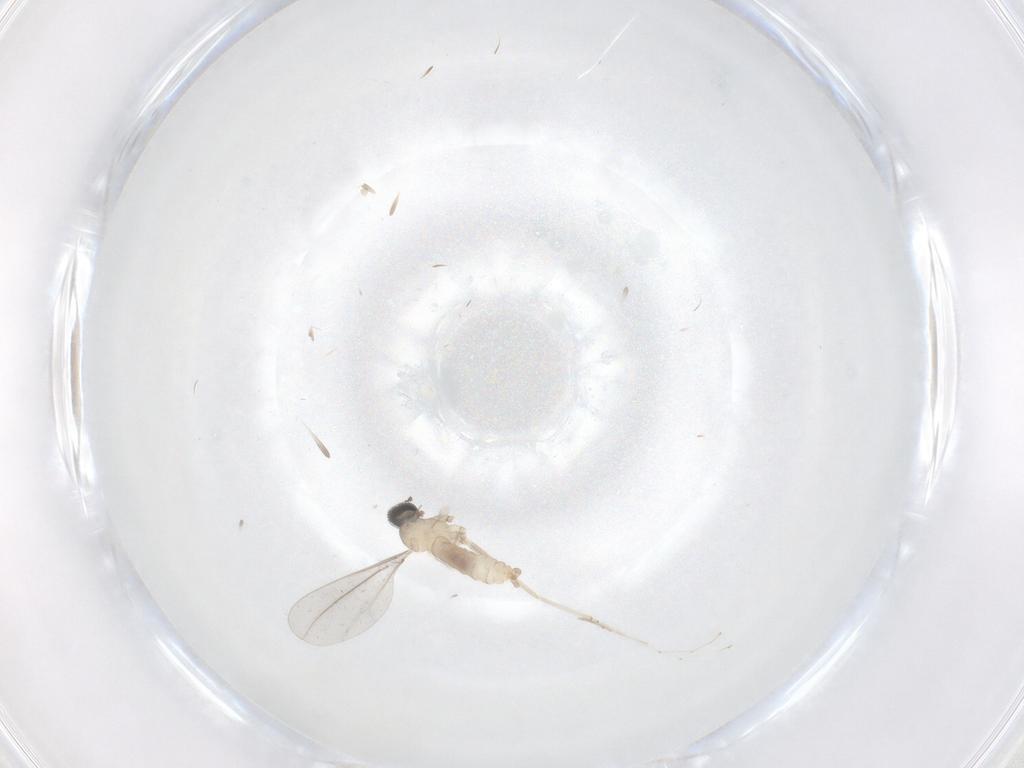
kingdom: Animalia
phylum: Arthropoda
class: Insecta
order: Diptera
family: Cecidomyiidae
